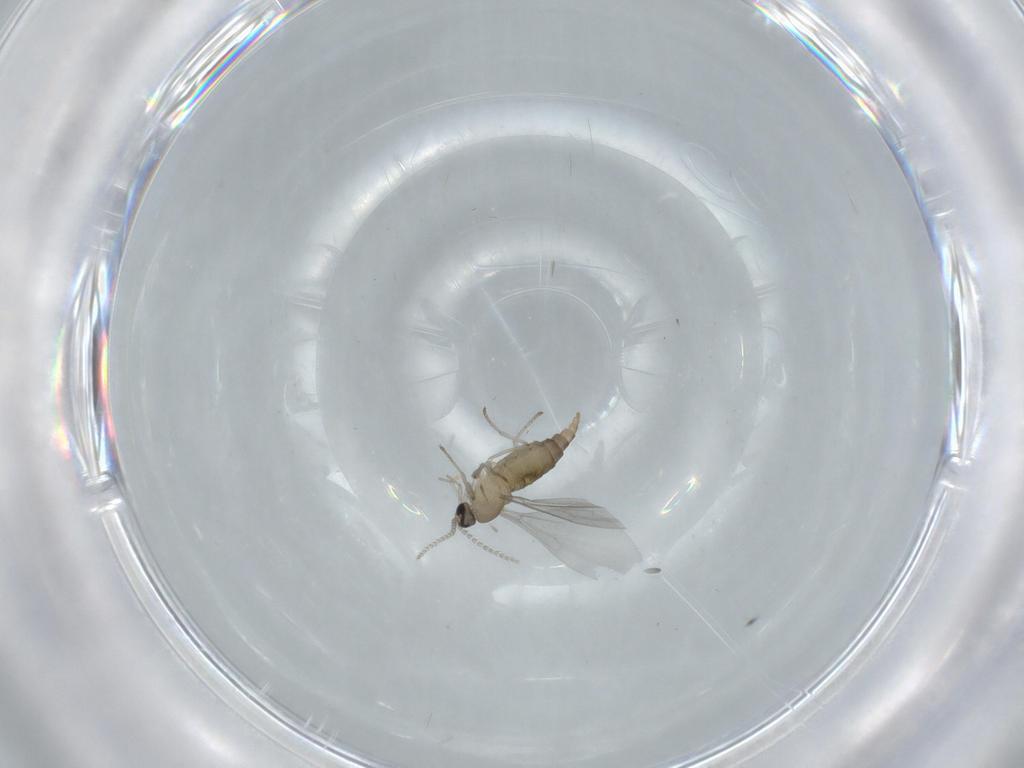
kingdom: Animalia
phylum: Arthropoda
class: Insecta
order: Diptera
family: Cecidomyiidae
